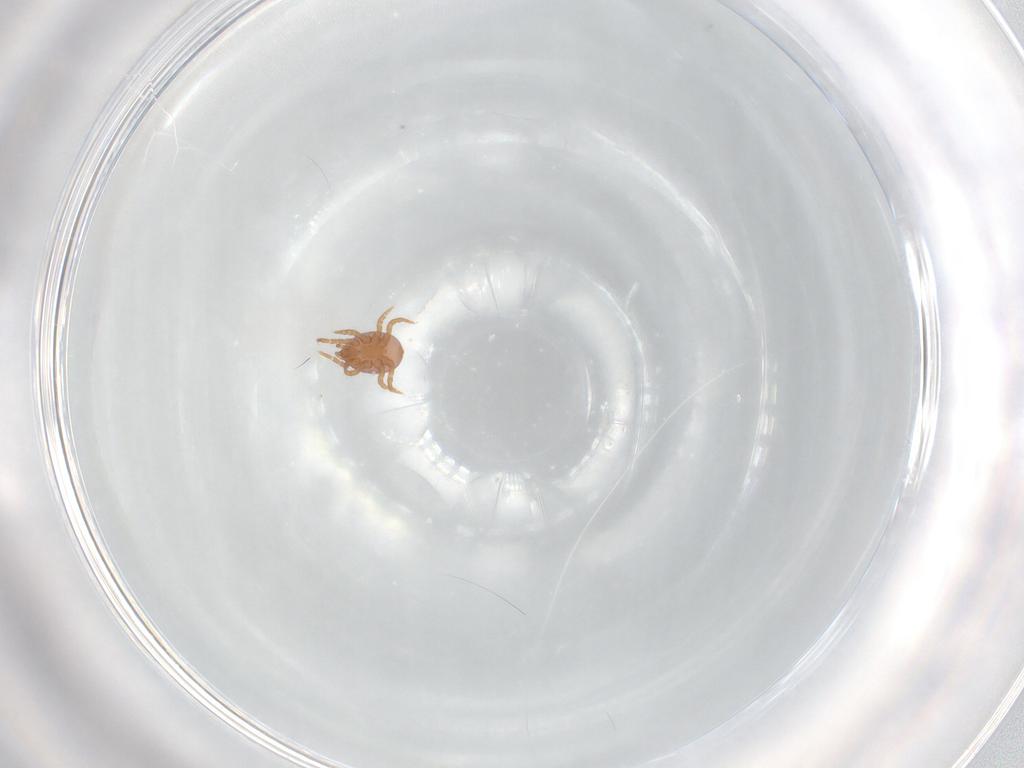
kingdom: Animalia
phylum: Arthropoda
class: Arachnida
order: Mesostigmata
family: Eviphididae
